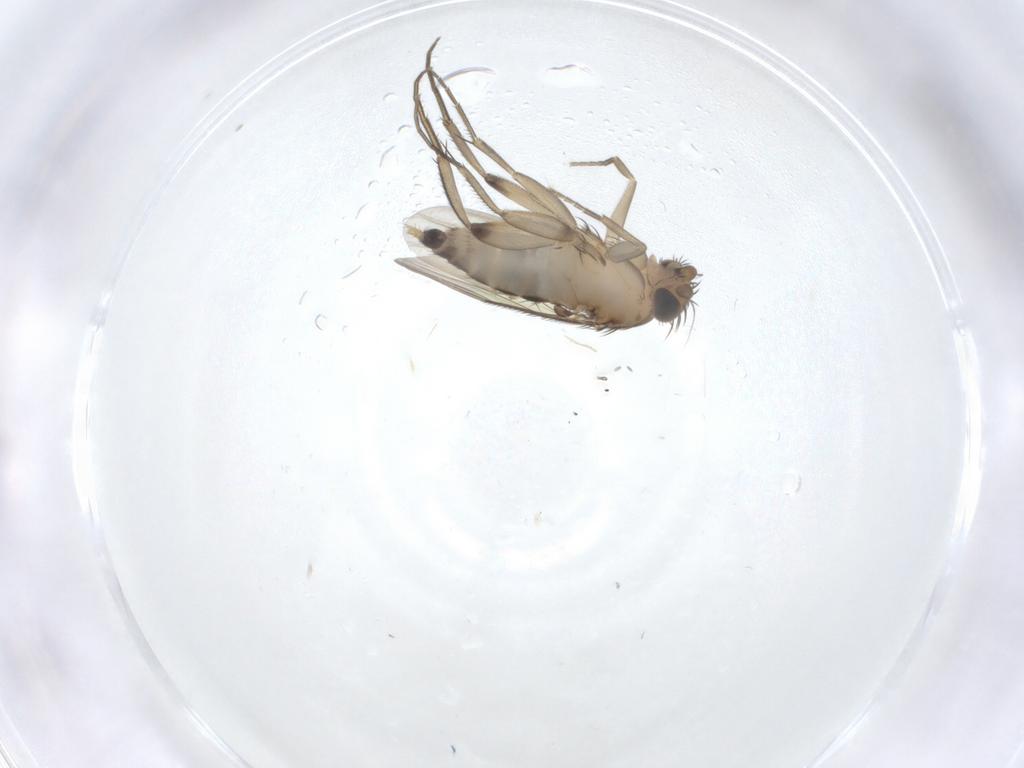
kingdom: Animalia
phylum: Arthropoda
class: Insecta
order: Diptera
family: Cecidomyiidae
